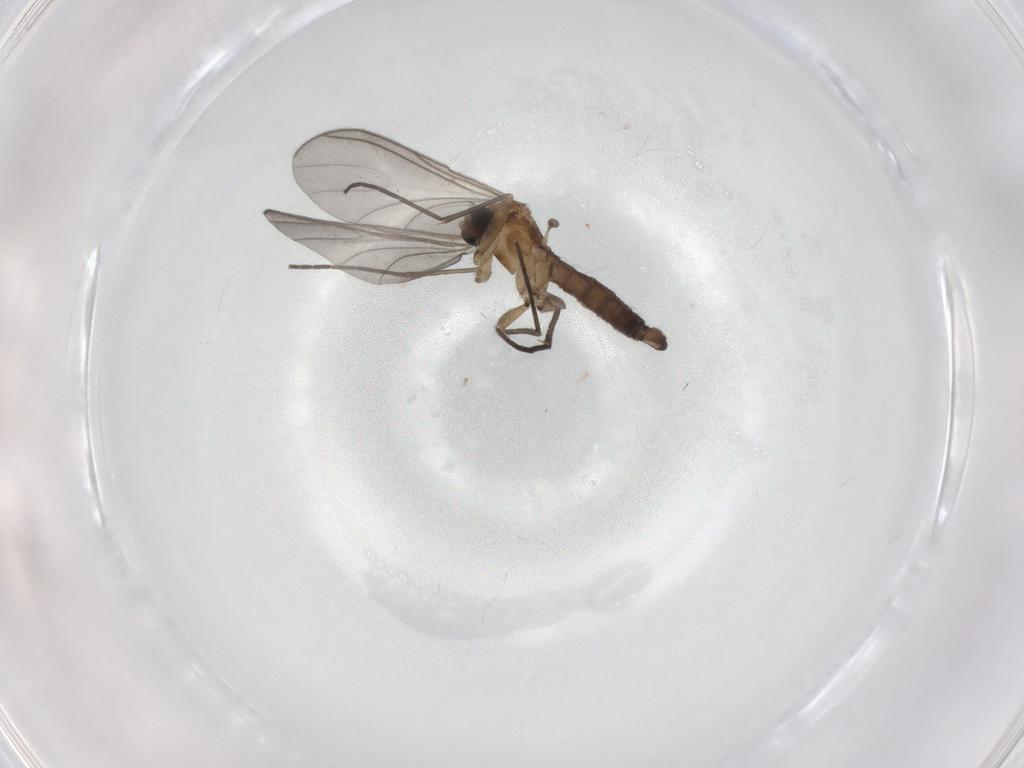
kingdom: Animalia
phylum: Arthropoda
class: Insecta
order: Diptera
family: Sciaridae
